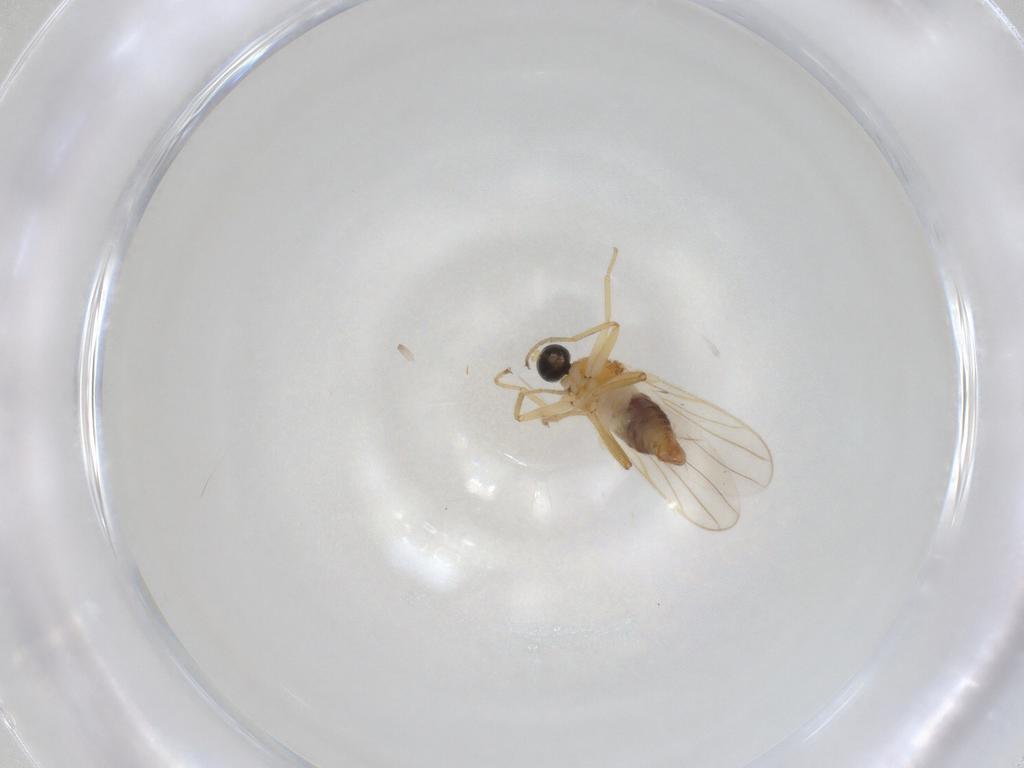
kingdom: Animalia
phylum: Arthropoda
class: Insecta
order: Diptera
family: Hybotidae
